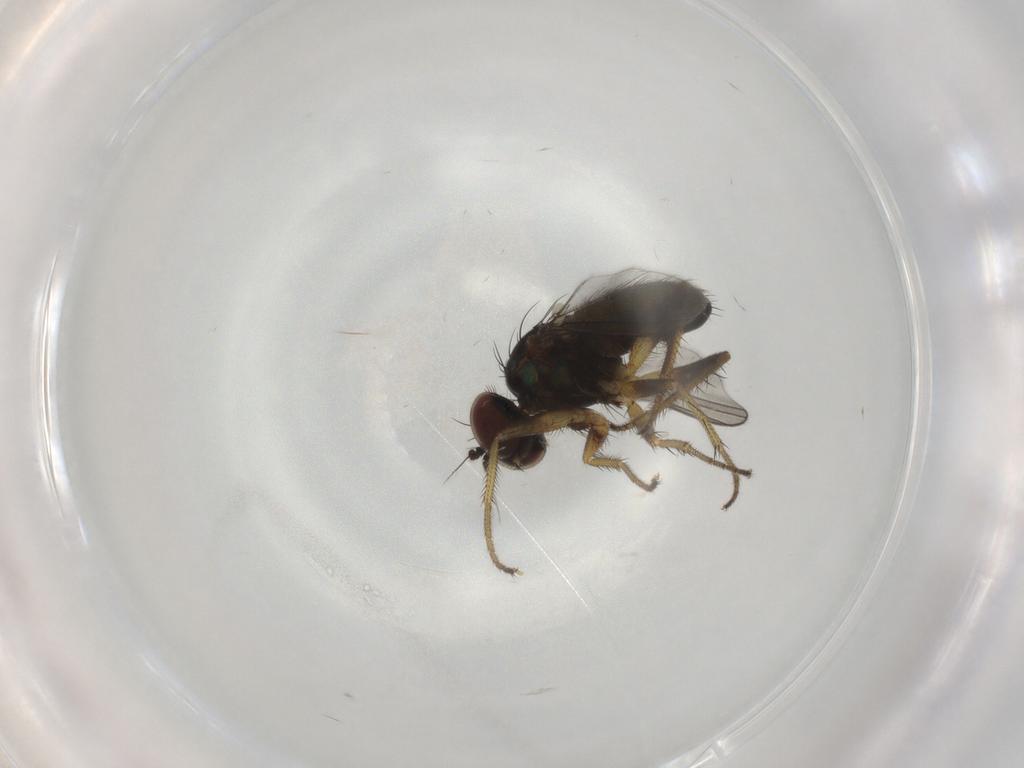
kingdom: Animalia
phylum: Arthropoda
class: Insecta
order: Diptera
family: Dolichopodidae
